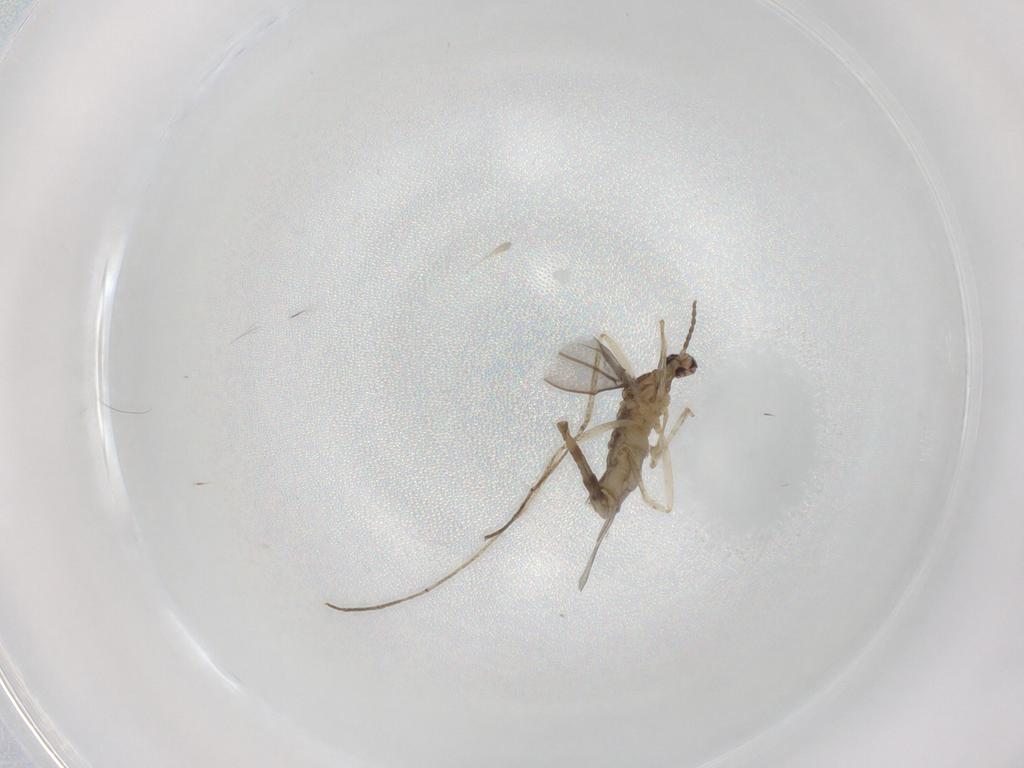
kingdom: Animalia
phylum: Arthropoda
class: Insecta
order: Diptera
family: Cecidomyiidae
